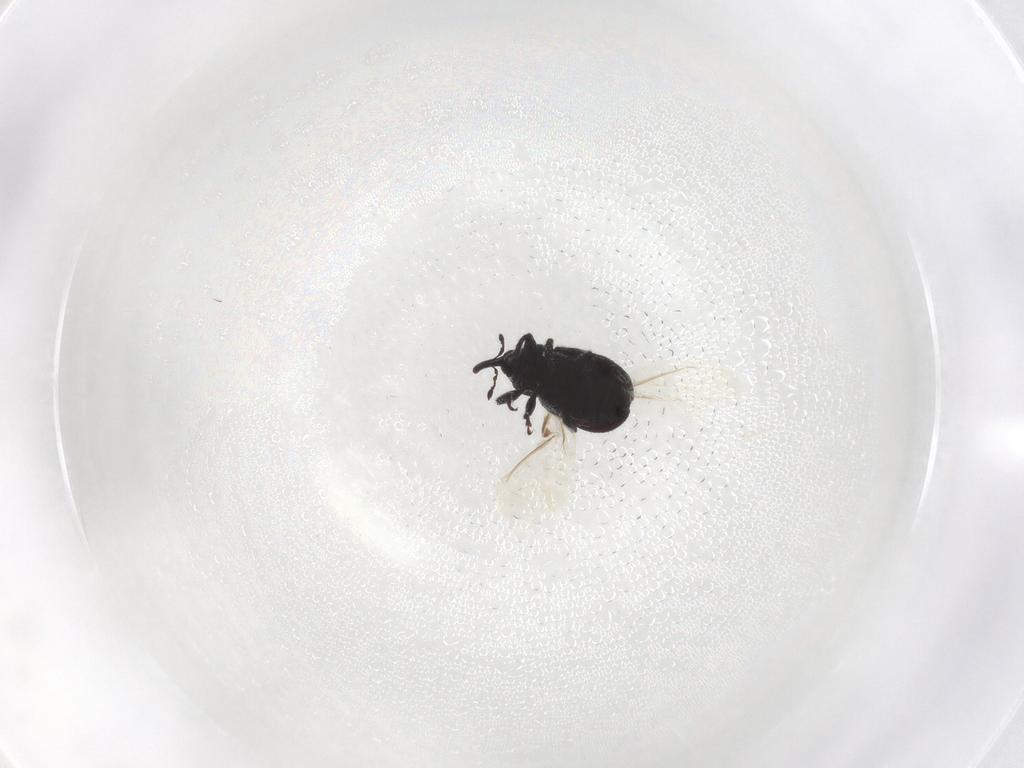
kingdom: Animalia
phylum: Arthropoda
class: Insecta
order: Coleoptera
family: Curculionidae
